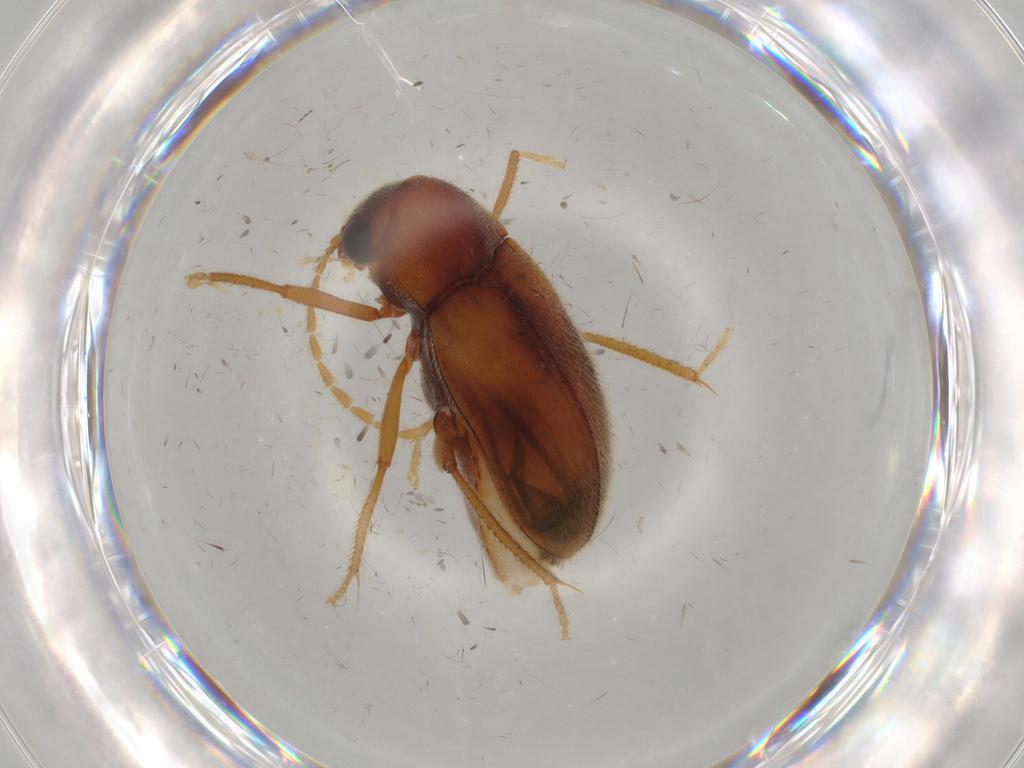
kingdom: Animalia
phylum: Arthropoda
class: Insecta
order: Coleoptera
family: Ptilodactylidae
